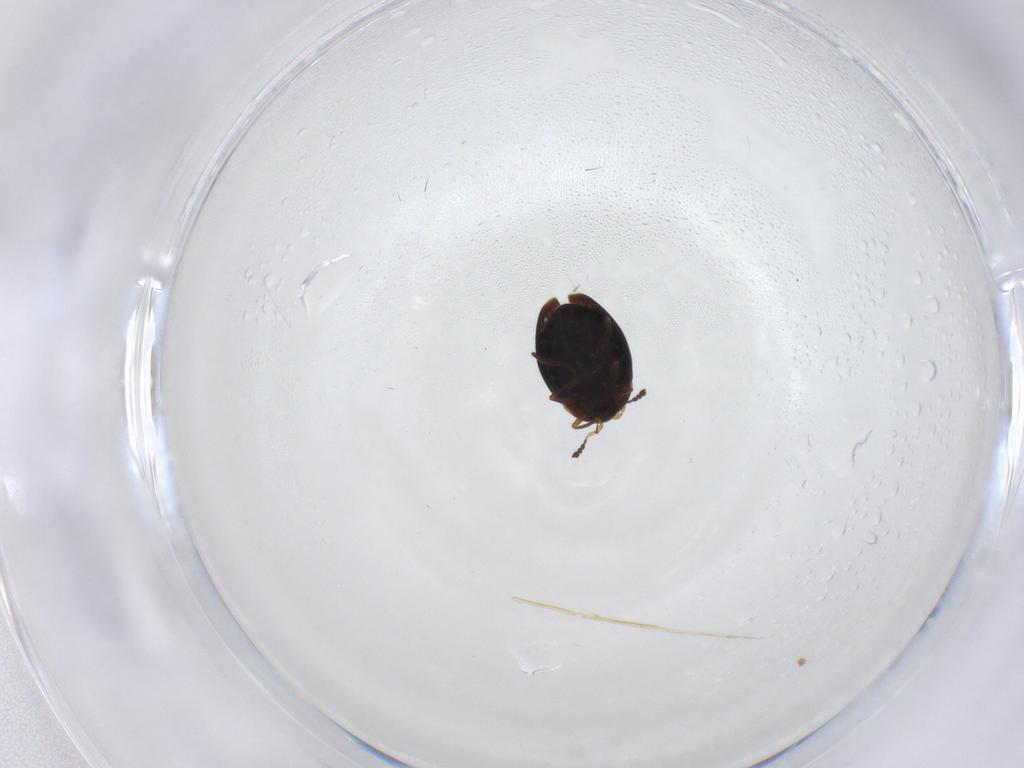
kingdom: Animalia
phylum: Arthropoda
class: Insecta
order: Coleoptera
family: Corylophidae
